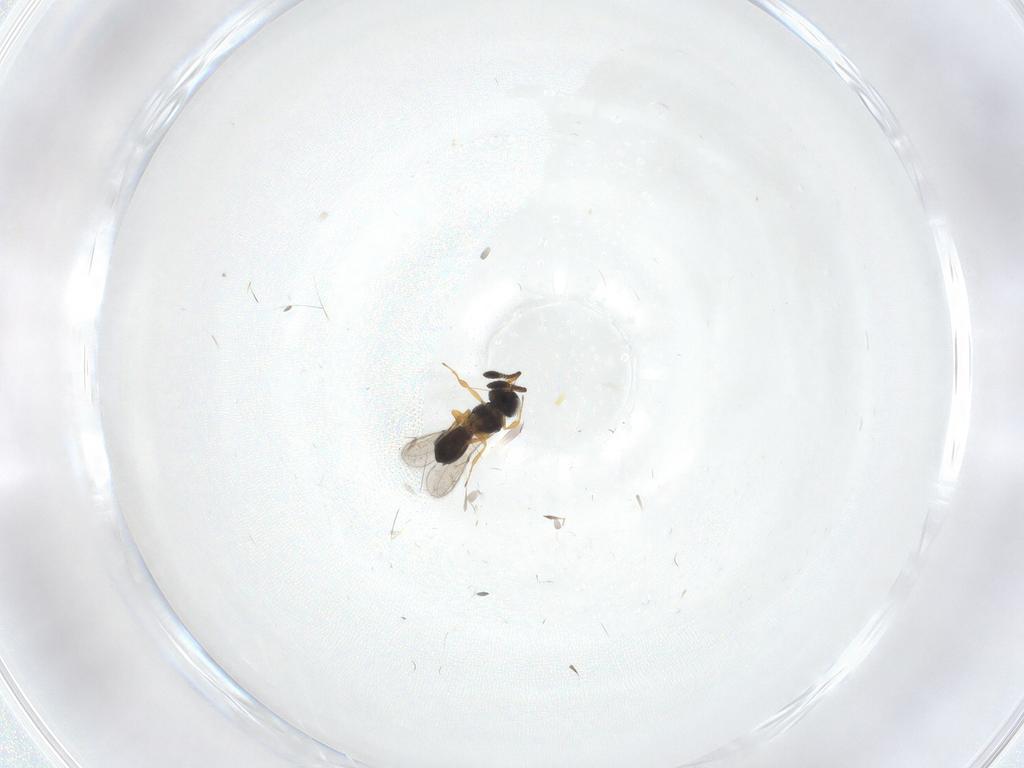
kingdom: Animalia
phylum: Arthropoda
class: Insecta
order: Hymenoptera
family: Scelionidae
